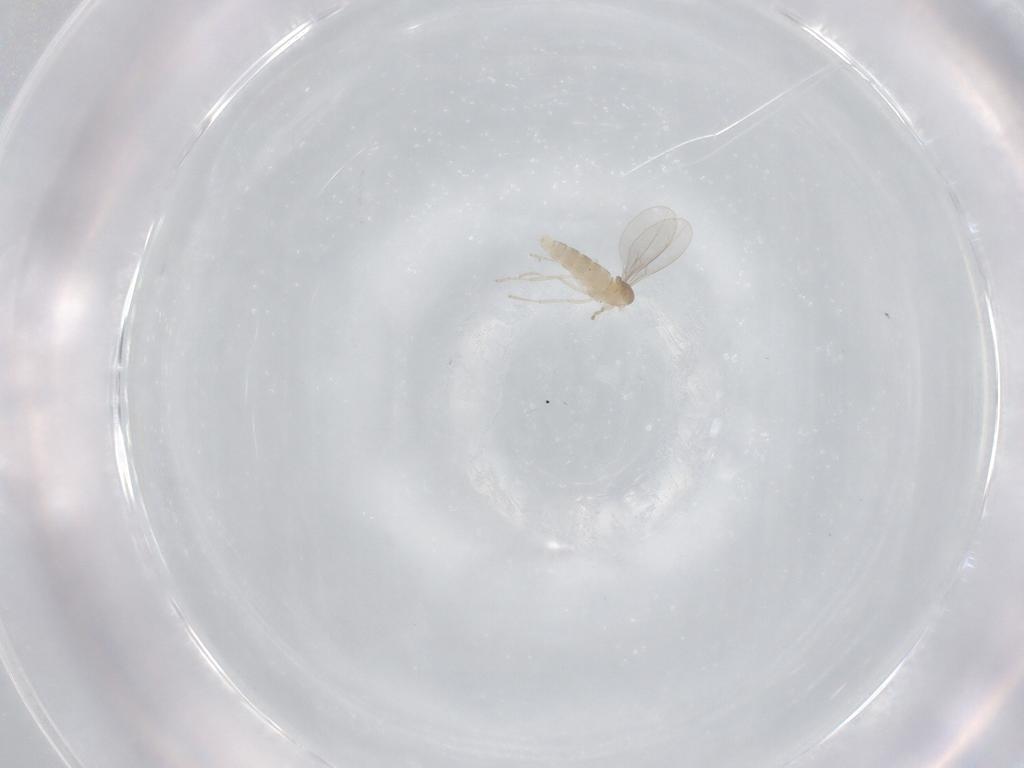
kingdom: Animalia
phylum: Arthropoda
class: Insecta
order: Diptera
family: Cecidomyiidae
